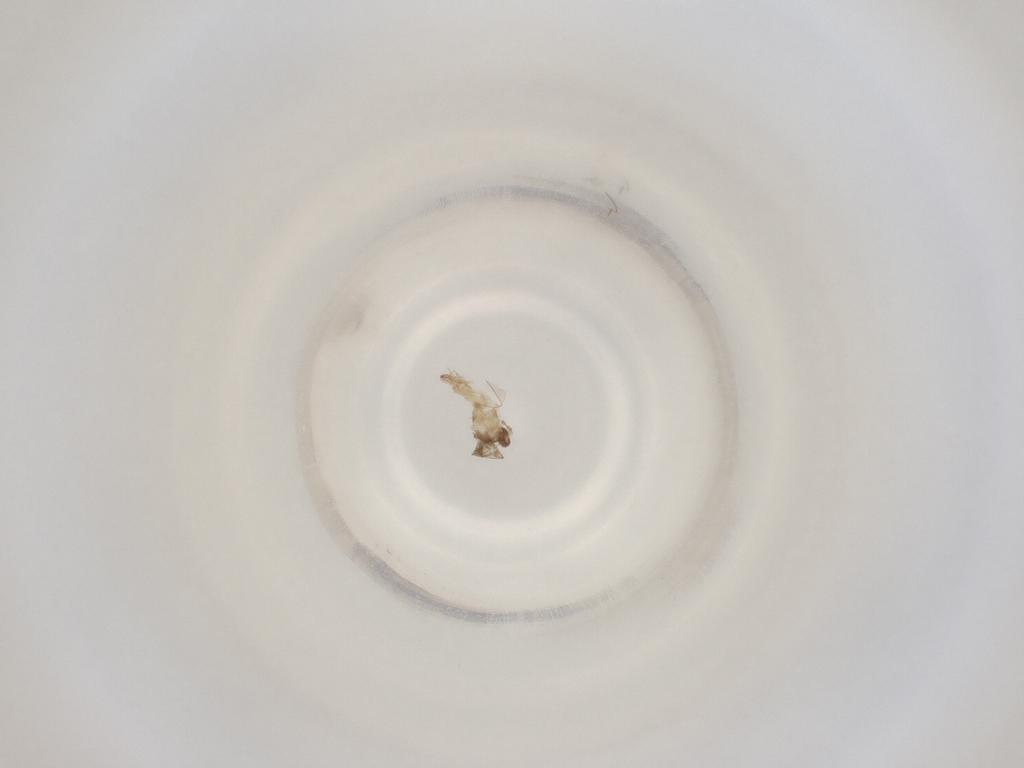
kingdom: Animalia
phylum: Arthropoda
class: Insecta
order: Diptera
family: Cecidomyiidae
